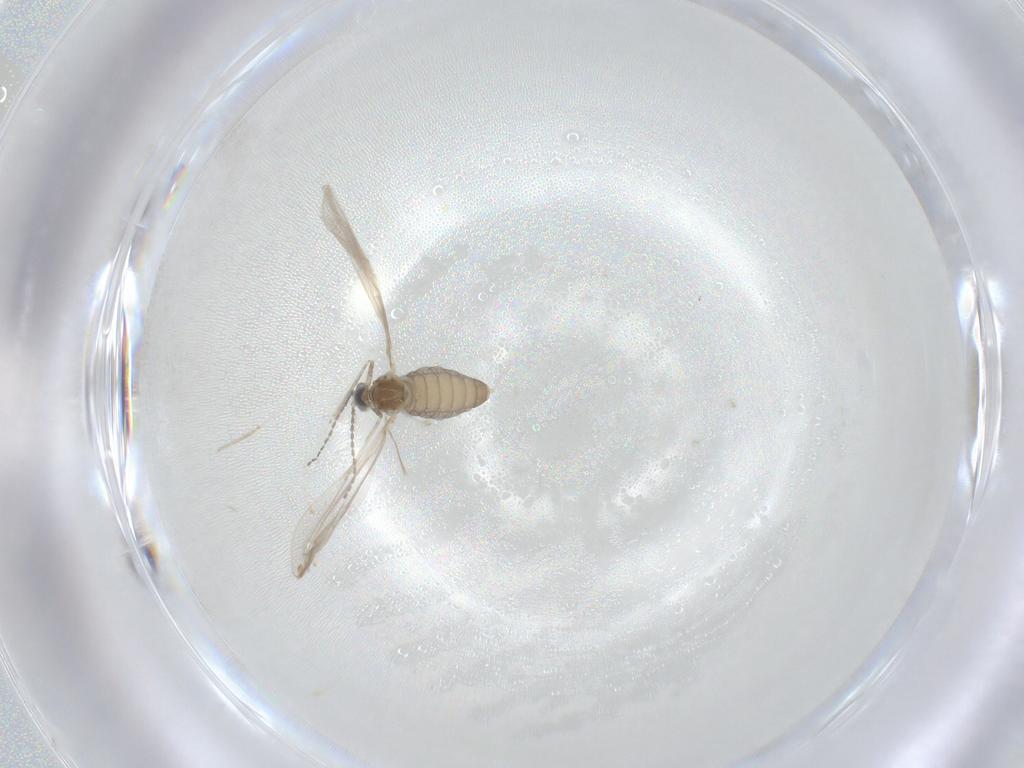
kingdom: Animalia
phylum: Arthropoda
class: Insecta
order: Diptera
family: Cecidomyiidae
